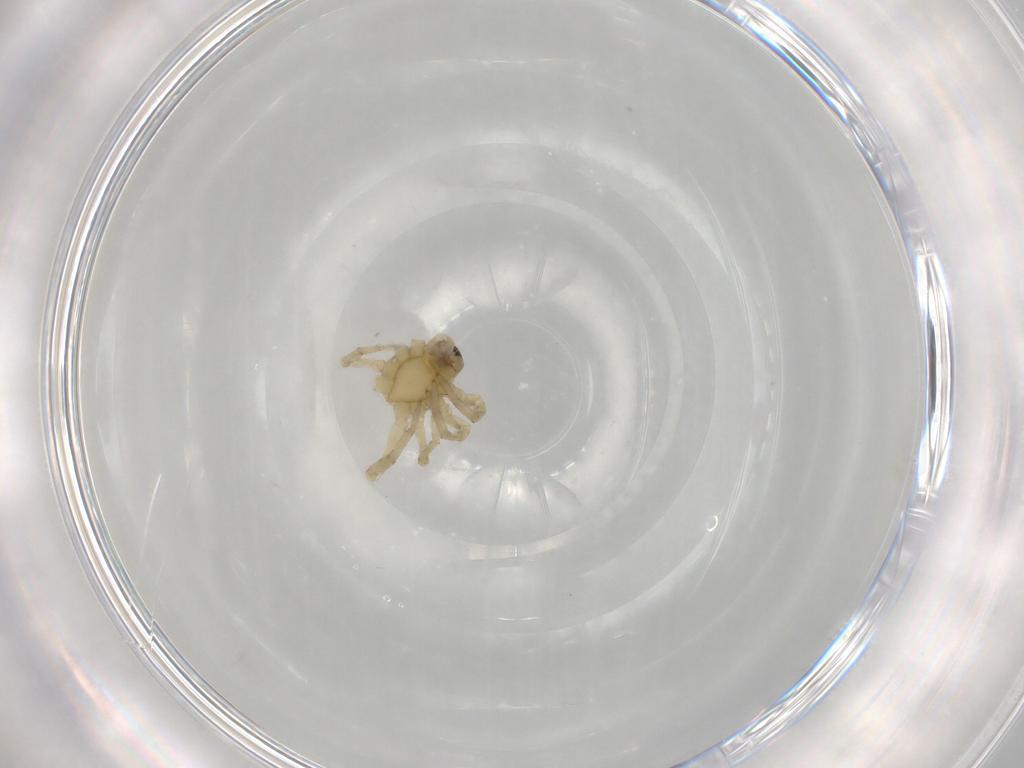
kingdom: Animalia
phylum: Arthropoda
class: Arachnida
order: Araneae
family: Anyphaenidae
